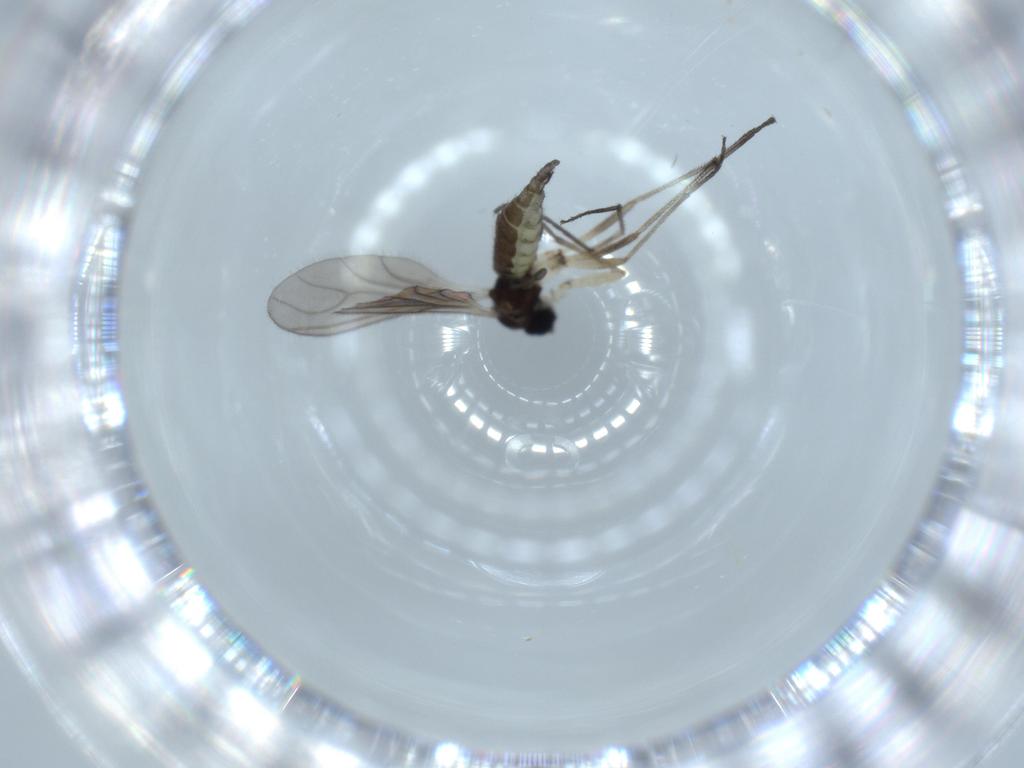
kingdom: Animalia
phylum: Arthropoda
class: Insecta
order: Diptera
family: Sciaridae
